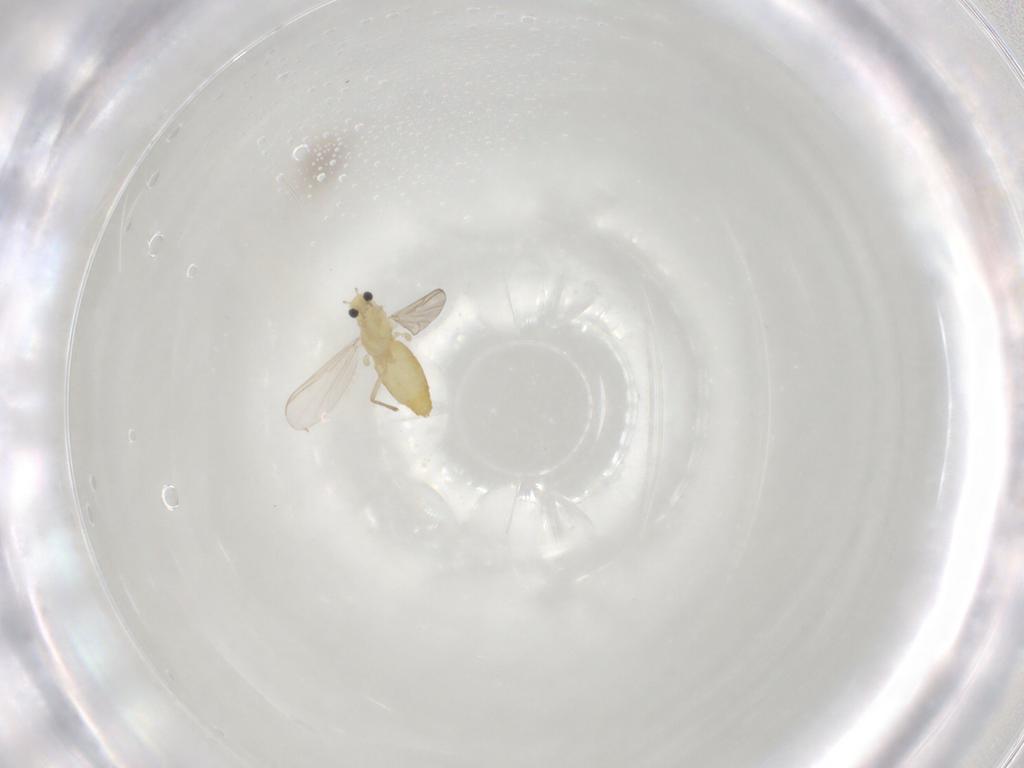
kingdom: Animalia
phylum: Arthropoda
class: Insecta
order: Diptera
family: Chironomidae
